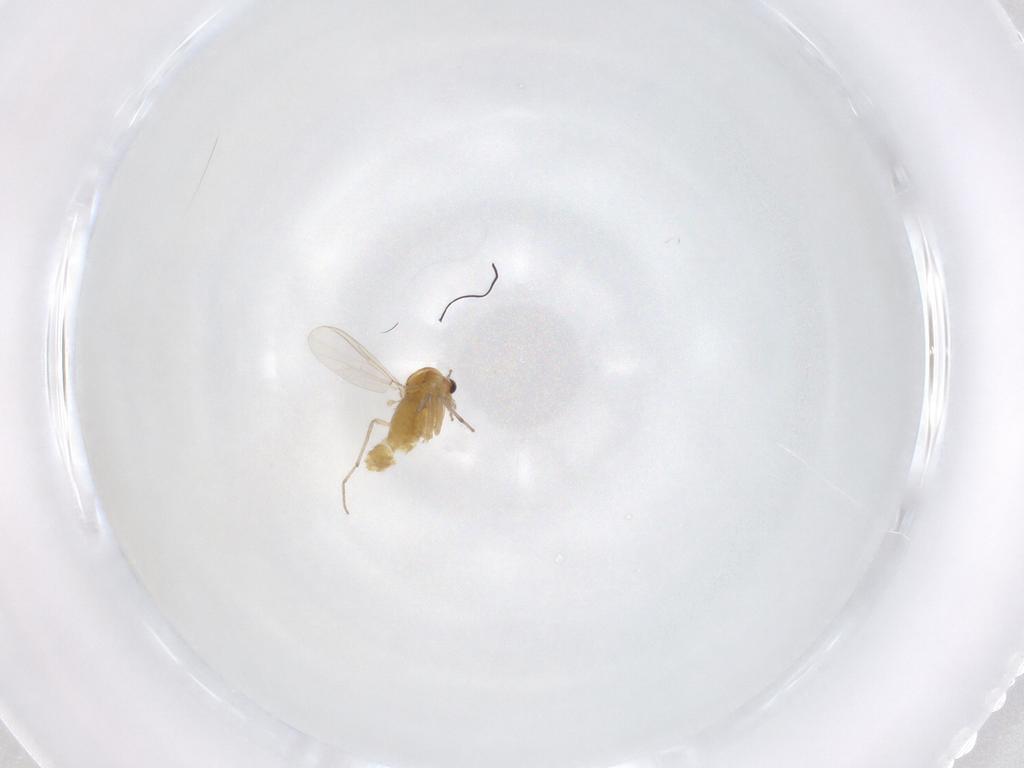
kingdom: Animalia
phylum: Arthropoda
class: Insecta
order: Diptera
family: Chironomidae
